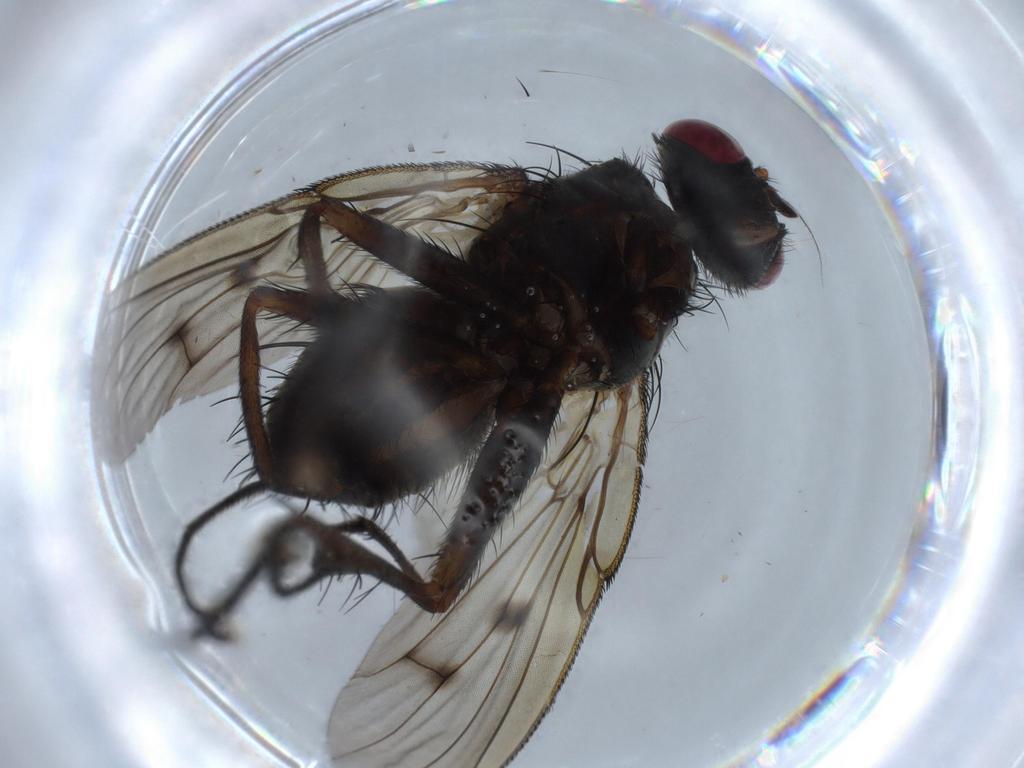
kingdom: Animalia
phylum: Arthropoda
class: Insecta
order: Diptera
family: Muscidae
